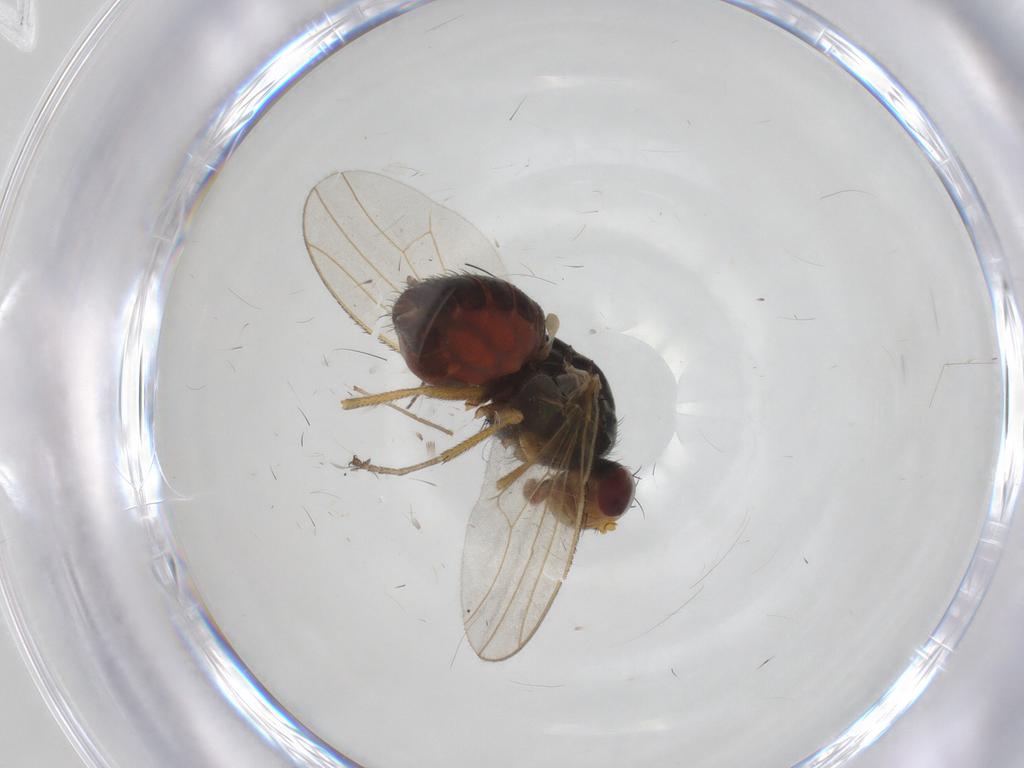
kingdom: Animalia
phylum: Arthropoda
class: Insecta
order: Diptera
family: Heleomyzidae
